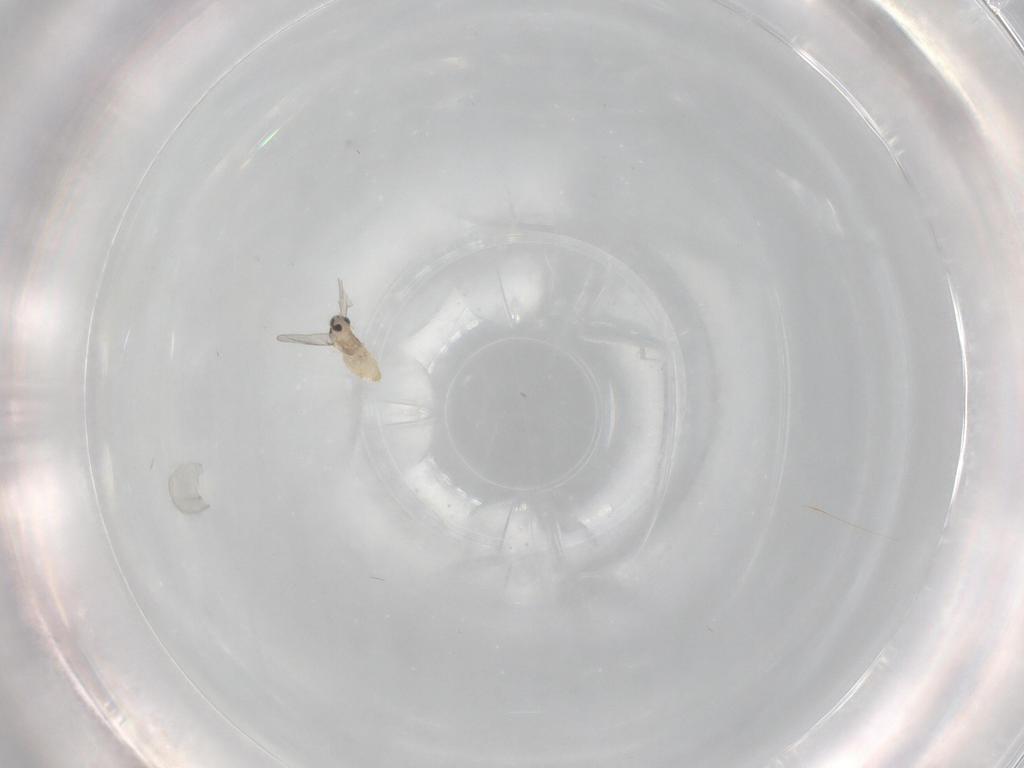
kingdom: Animalia
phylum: Arthropoda
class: Insecta
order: Diptera
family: Cecidomyiidae
